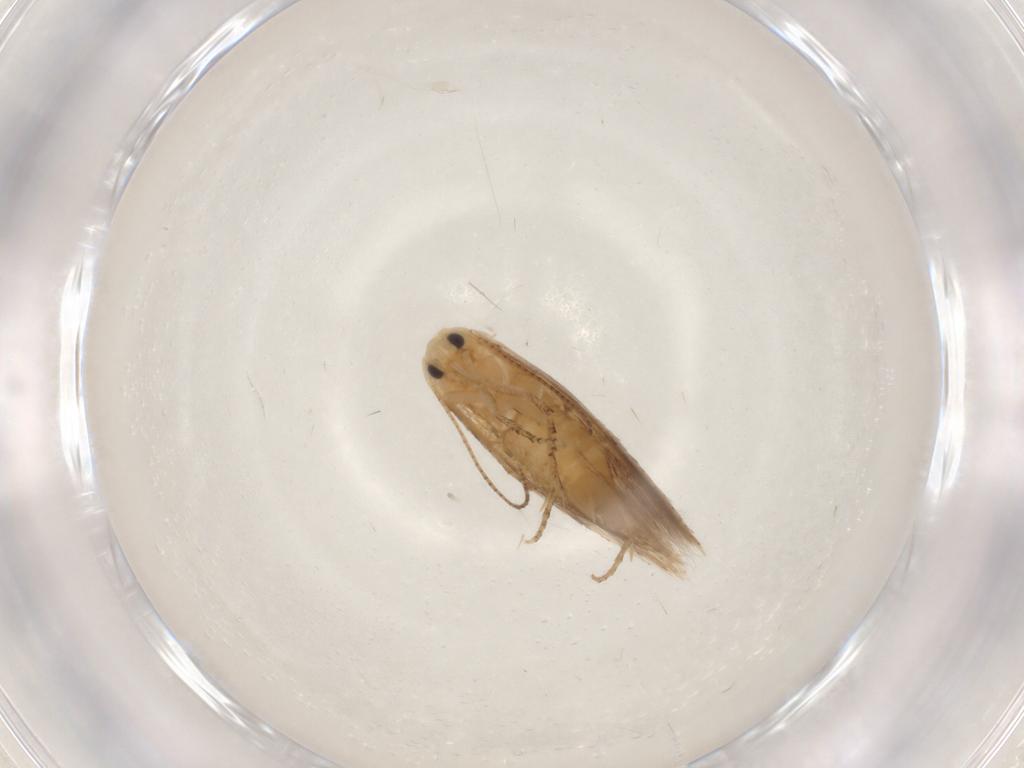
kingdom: Animalia
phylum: Arthropoda
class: Insecta
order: Lepidoptera
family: Bucculatricidae
